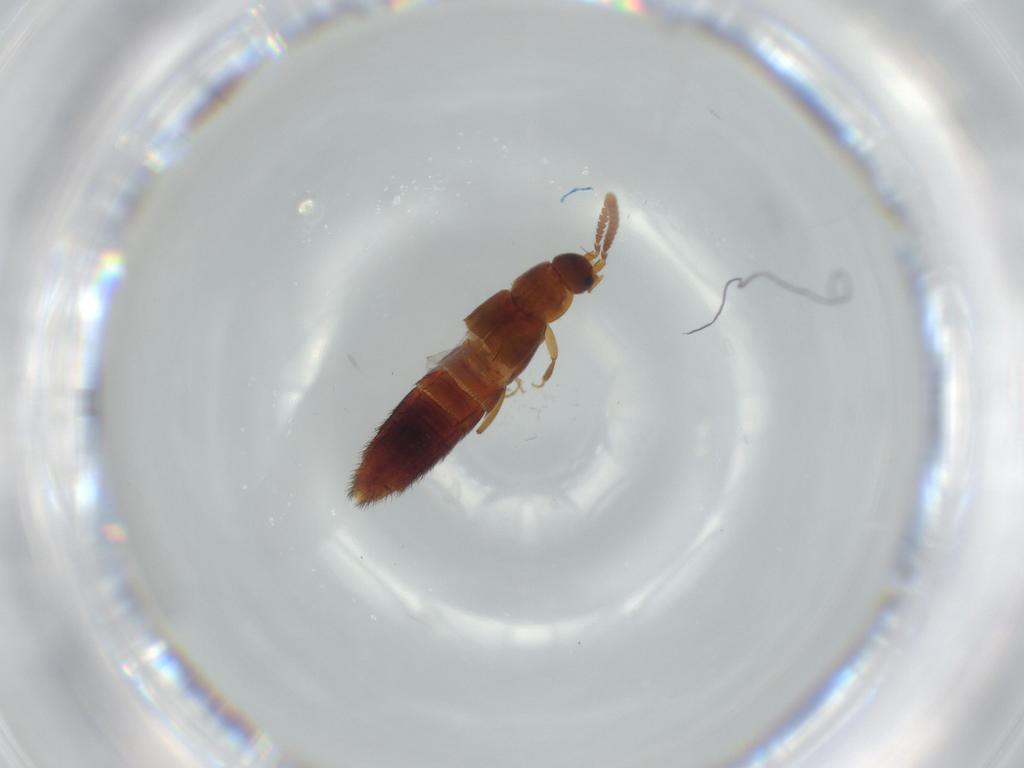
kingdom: Animalia
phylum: Arthropoda
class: Insecta
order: Coleoptera
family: Staphylinidae
